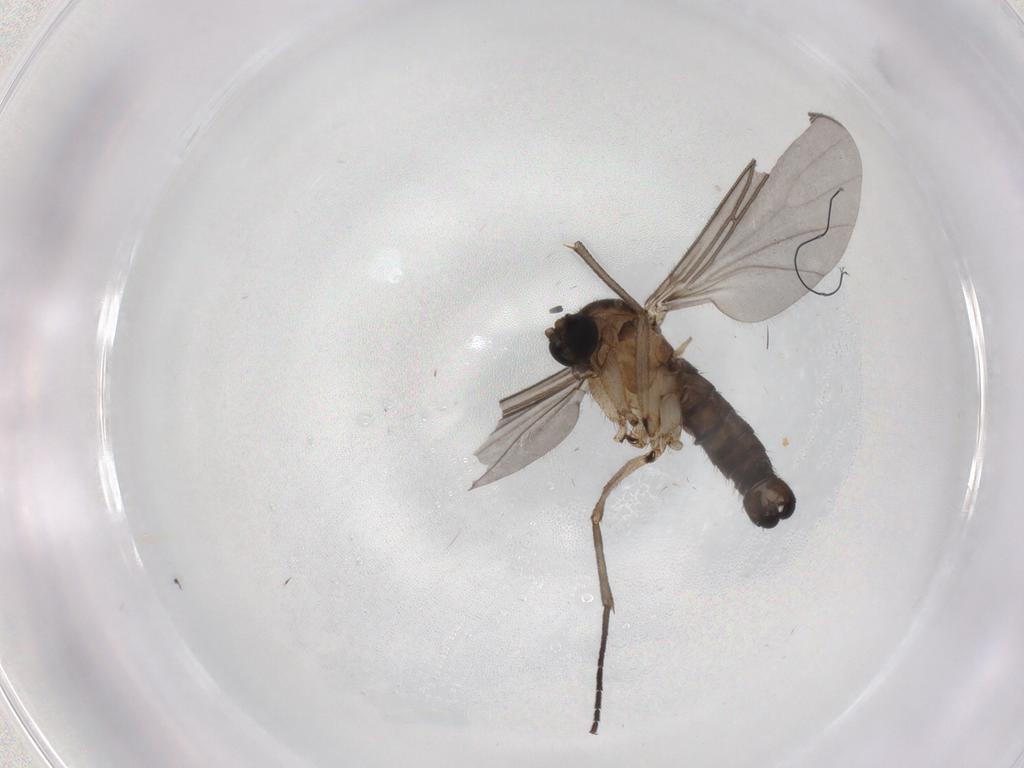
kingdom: Animalia
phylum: Arthropoda
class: Insecta
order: Diptera
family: Sciaridae
